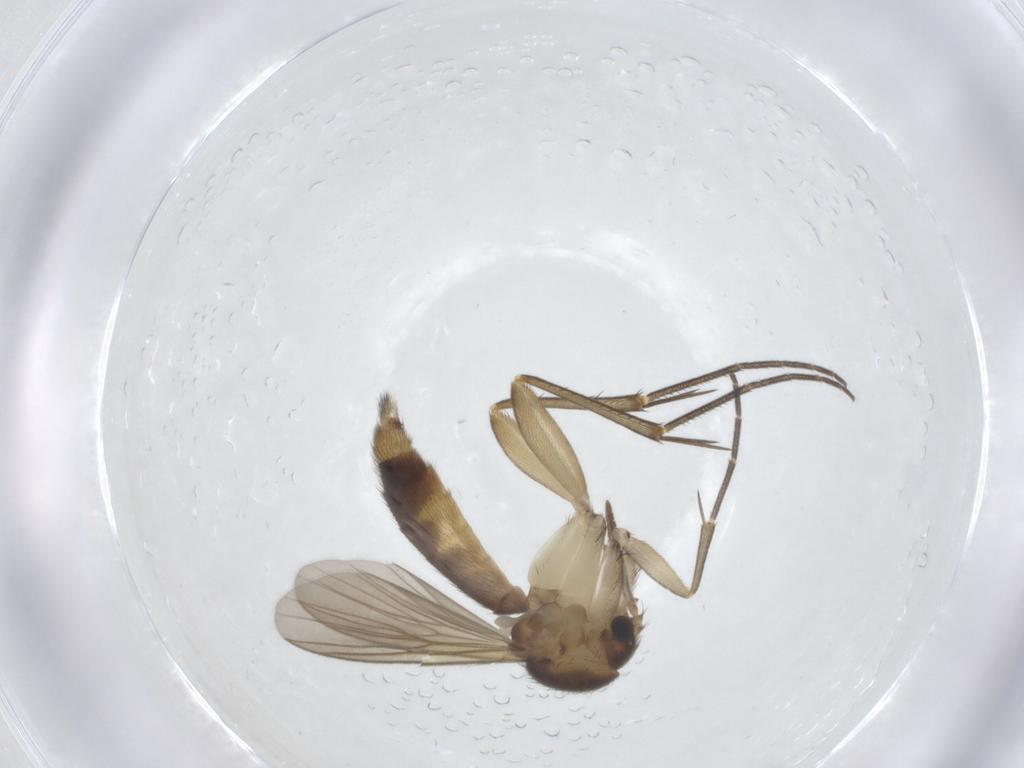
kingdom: Animalia
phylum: Arthropoda
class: Insecta
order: Diptera
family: Mycetophilidae
